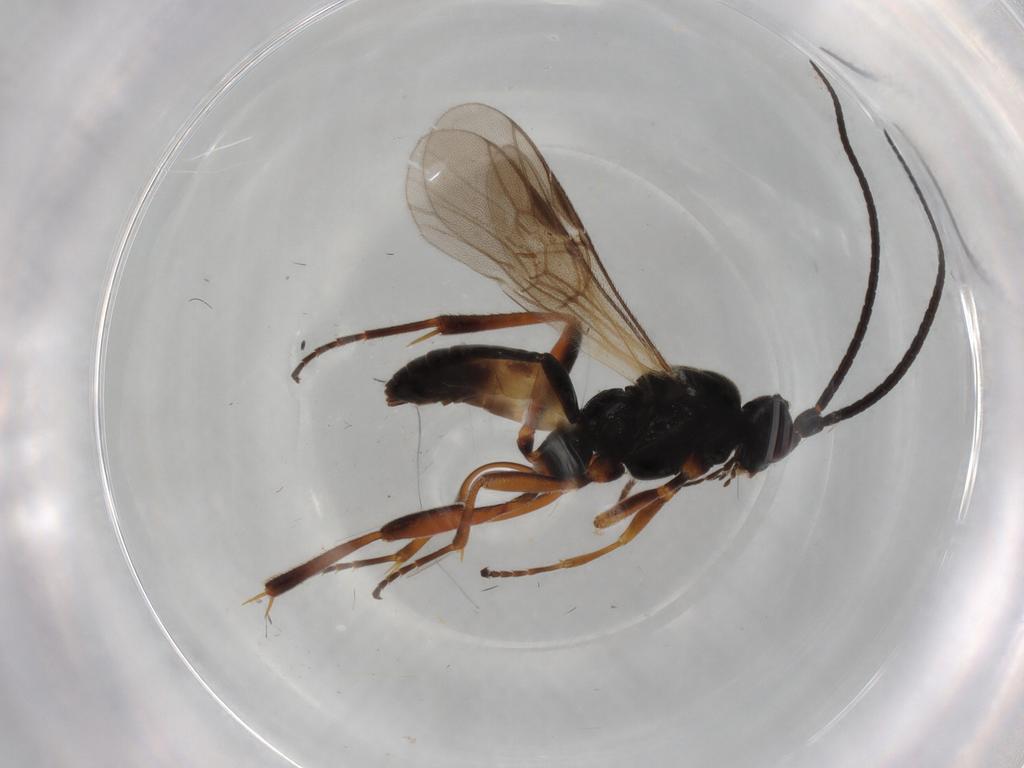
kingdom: Animalia
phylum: Arthropoda
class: Insecta
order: Hymenoptera
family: Braconidae
